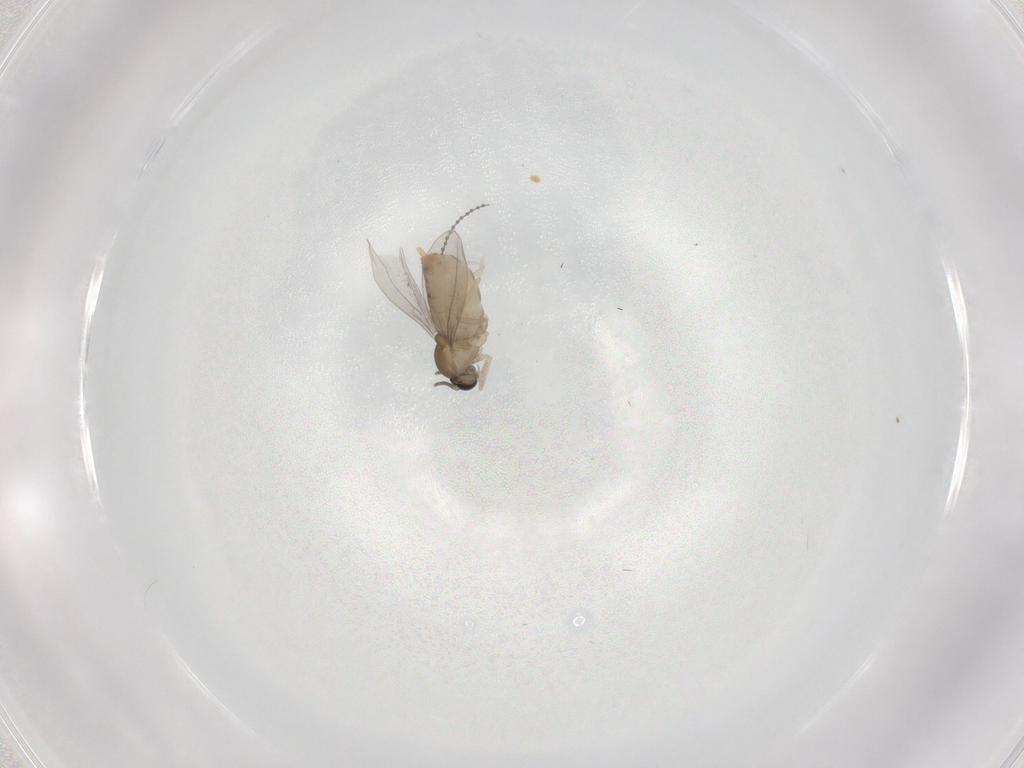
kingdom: Animalia
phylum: Arthropoda
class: Insecta
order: Diptera
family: Cecidomyiidae
